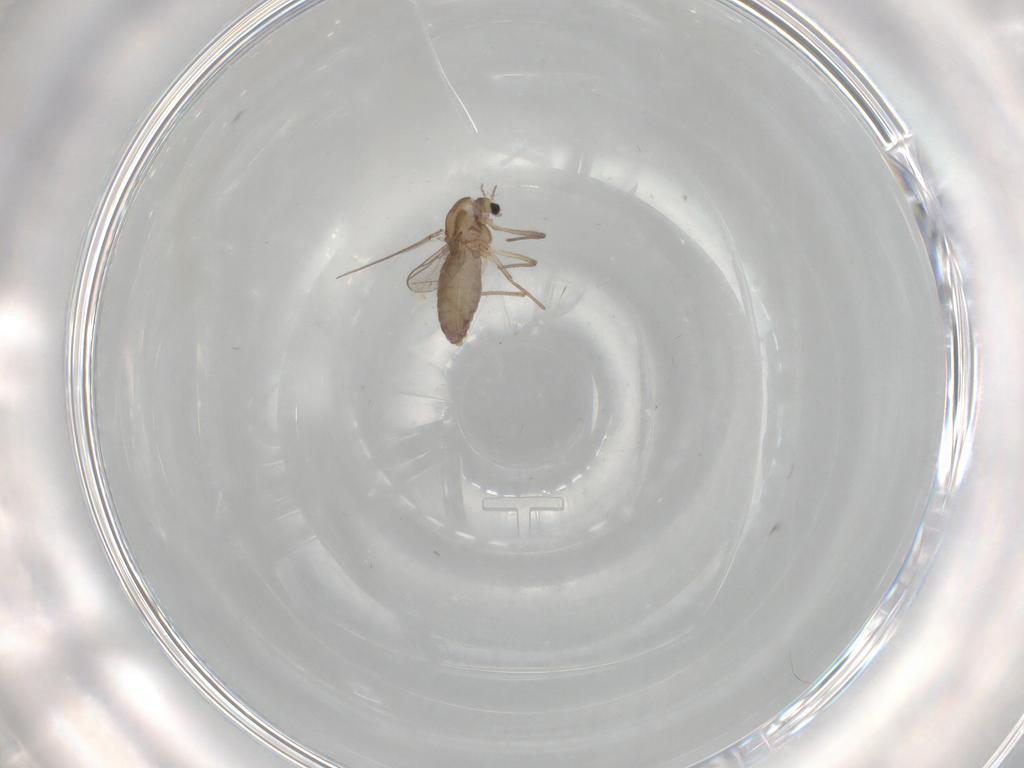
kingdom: Animalia
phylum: Arthropoda
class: Insecta
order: Diptera
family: Chironomidae
